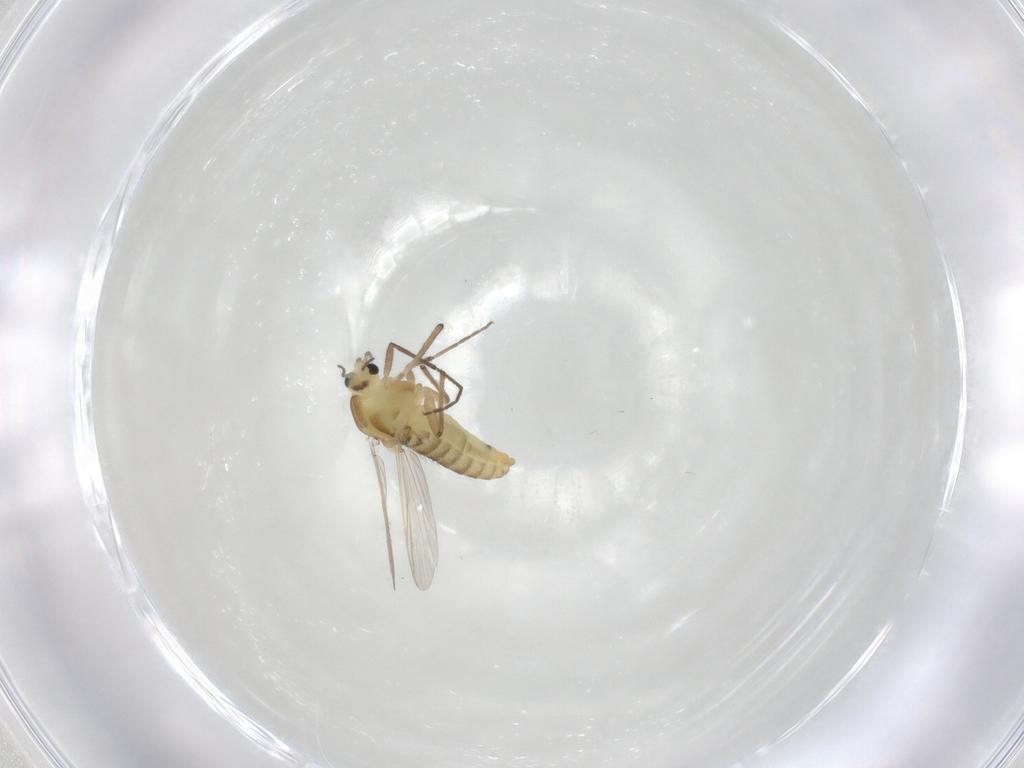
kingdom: Animalia
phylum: Arthropoda
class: Insecta
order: Diptera
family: Chironomidae
